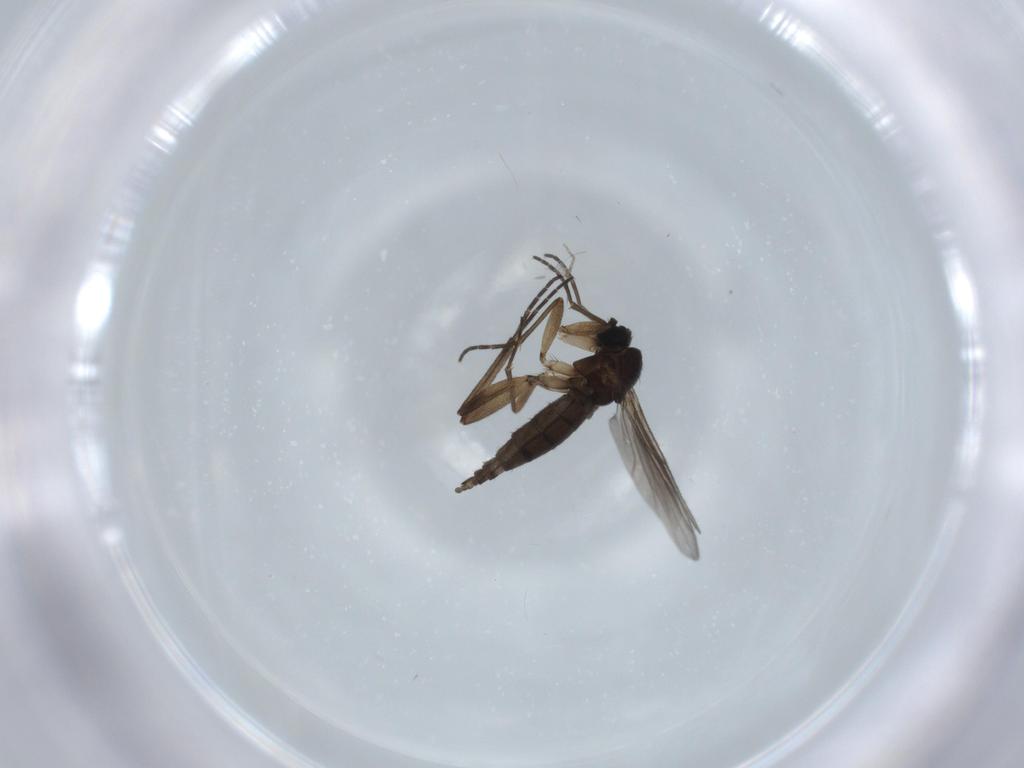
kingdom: Animalia
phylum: Arthropoda
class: Insecta
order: Diptera
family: Sciaridae
